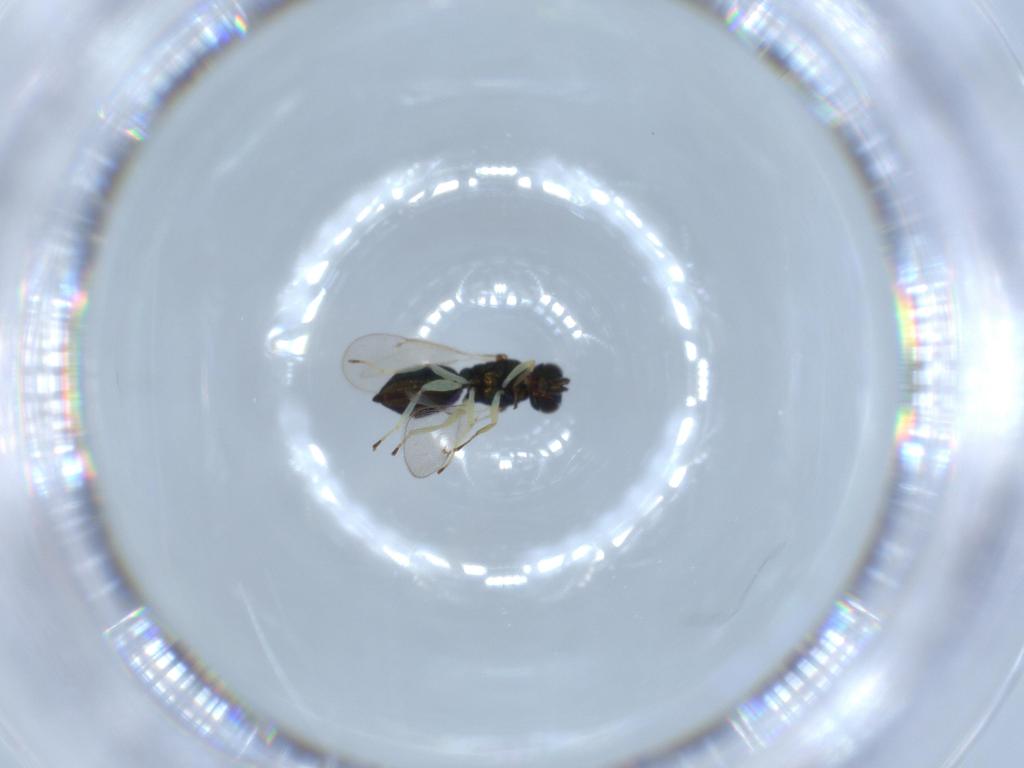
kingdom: Animalia
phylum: Arthropoda
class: Insecta
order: Hymenoptera
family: Eulophidae
